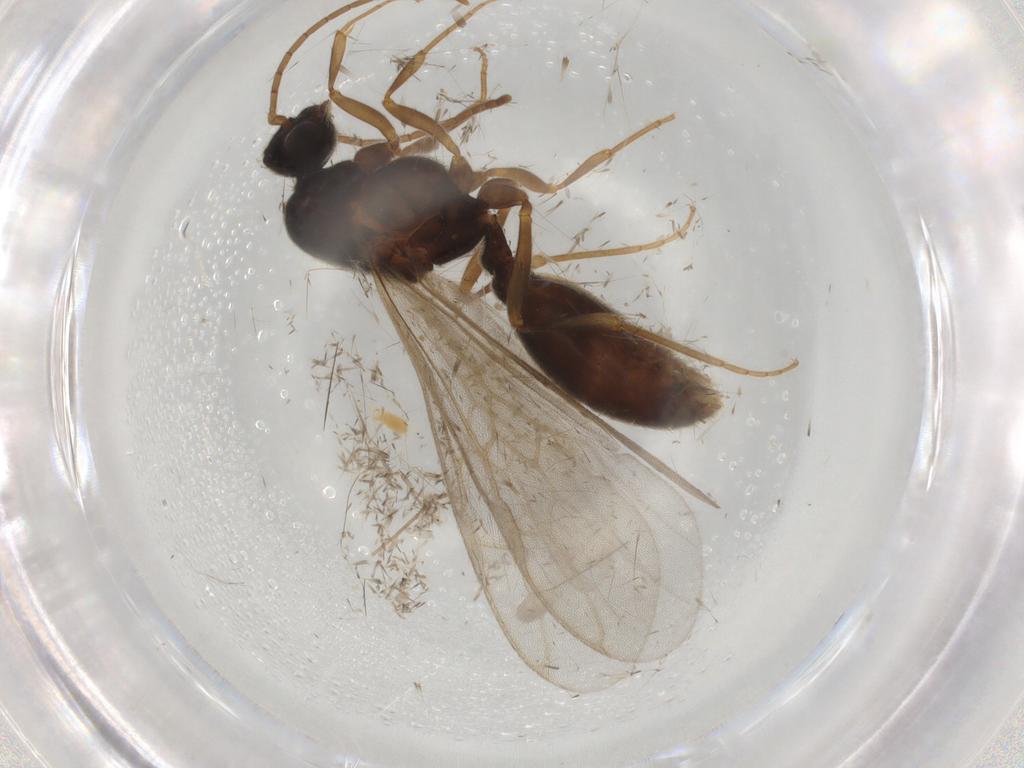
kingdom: Animalia
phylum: Arthropoda
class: Insecta
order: Hymenoptera
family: Formicidae
